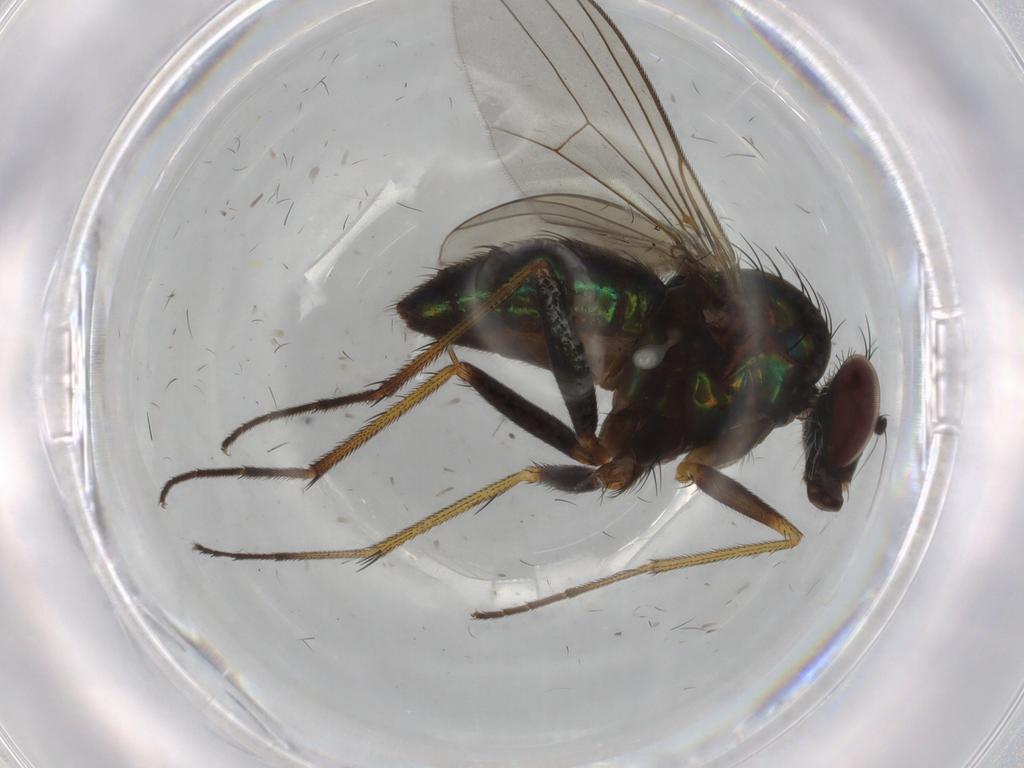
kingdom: Animalia
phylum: Arthropoda
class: Insecta
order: Diptera
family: Dolichopodidae
